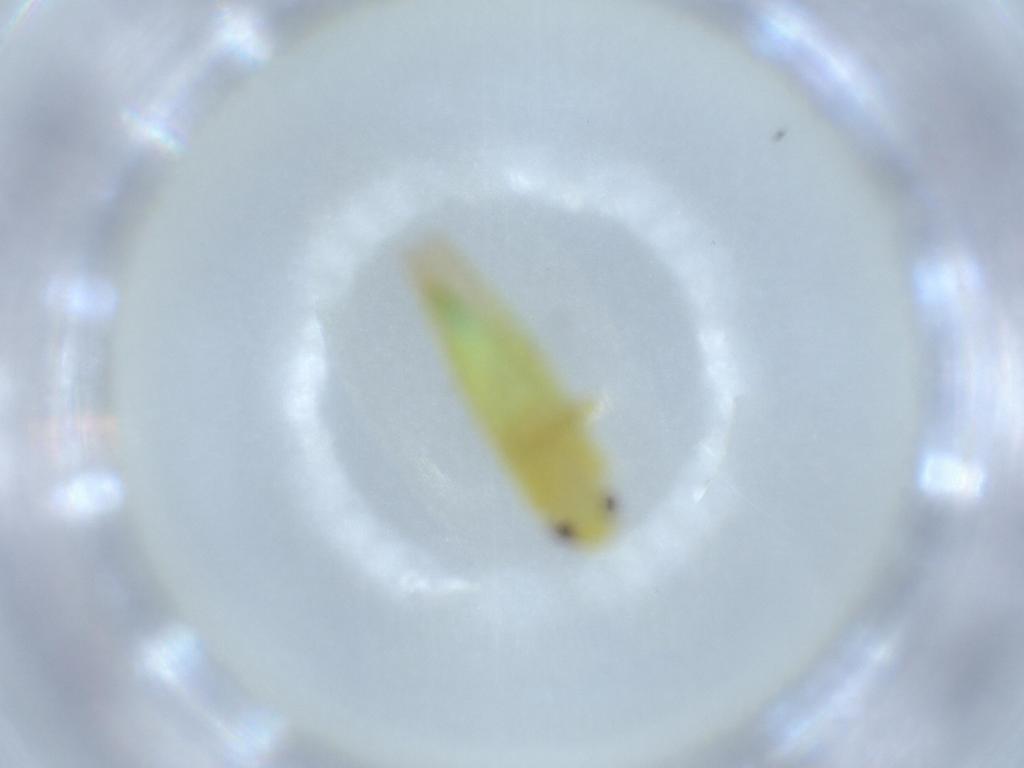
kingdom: Animalia
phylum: Arthropoda
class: Insecta
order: Hemiptera
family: Cicadellidae
